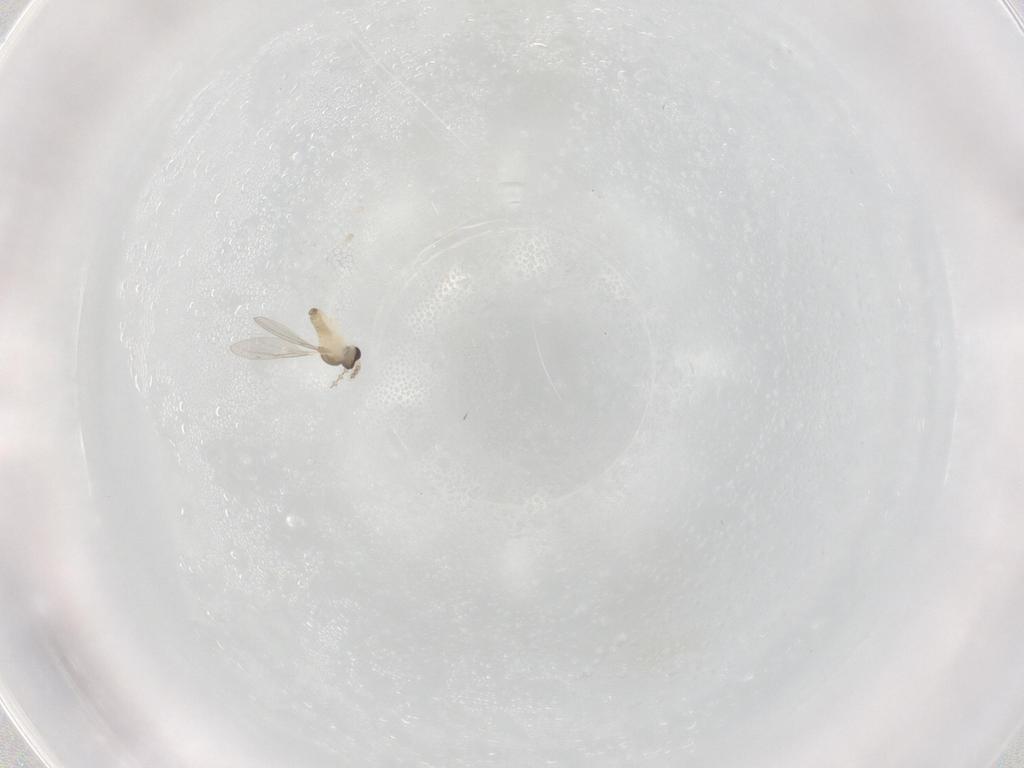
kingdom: Animalia
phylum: Arthropoda
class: Insecta
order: Diptera
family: Cecidomyiidae
